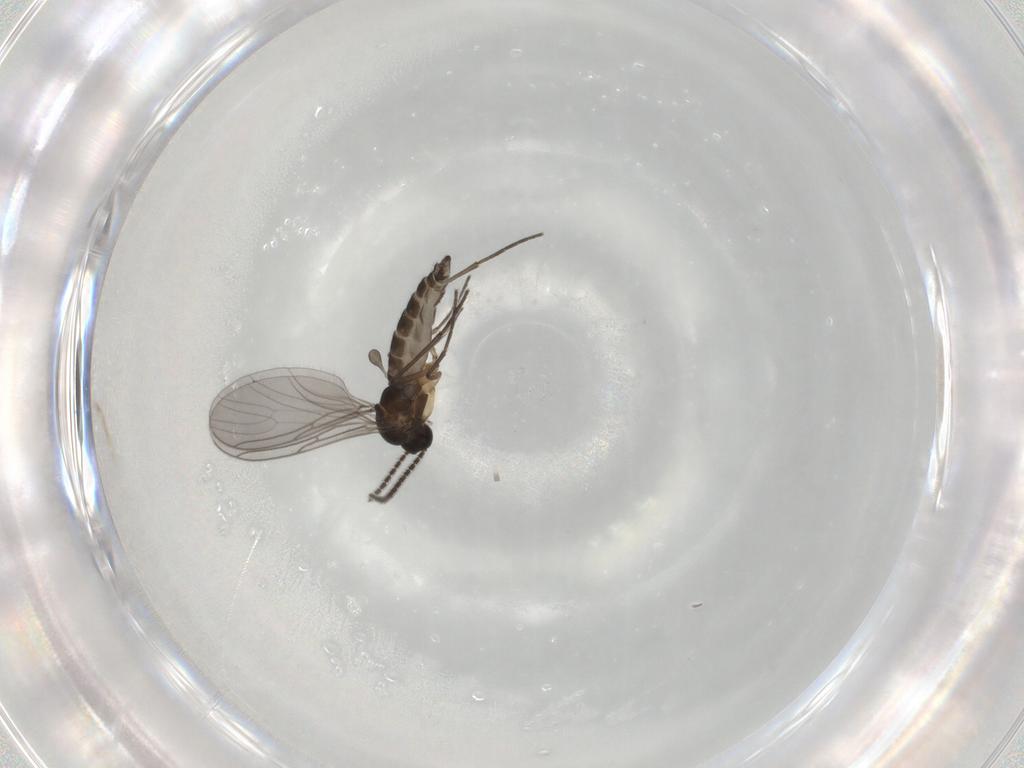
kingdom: Animalia
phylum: Arthropoda
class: Insecta
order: Diptera
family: Sciaridae
